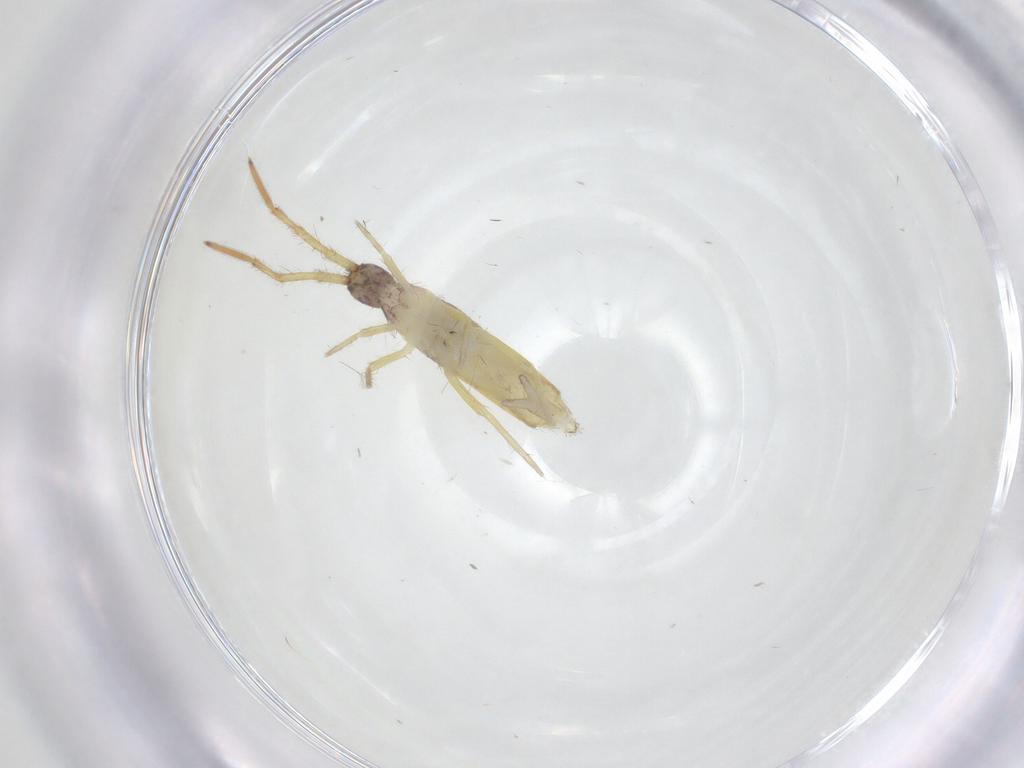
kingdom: Animalia
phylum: Arthropoda
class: Collembola
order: Entomobryomorpha
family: Entomobryidae
